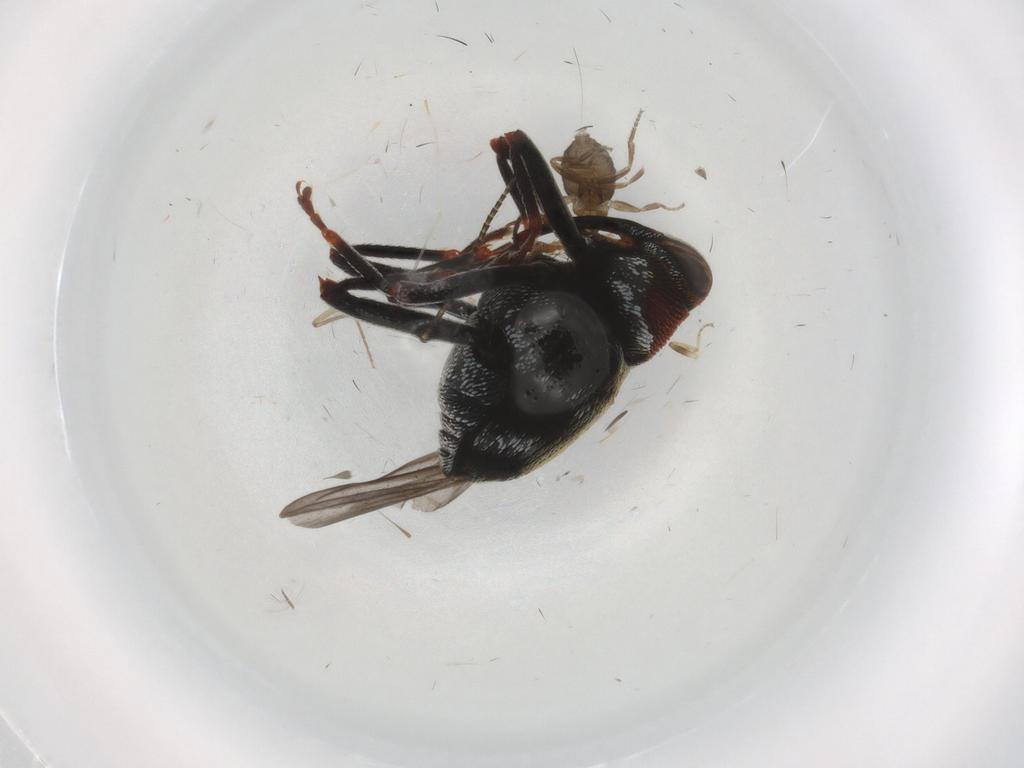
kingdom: Animalia
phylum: Arthropoda
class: Insecta
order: Coleoptera
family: Curculionidae
